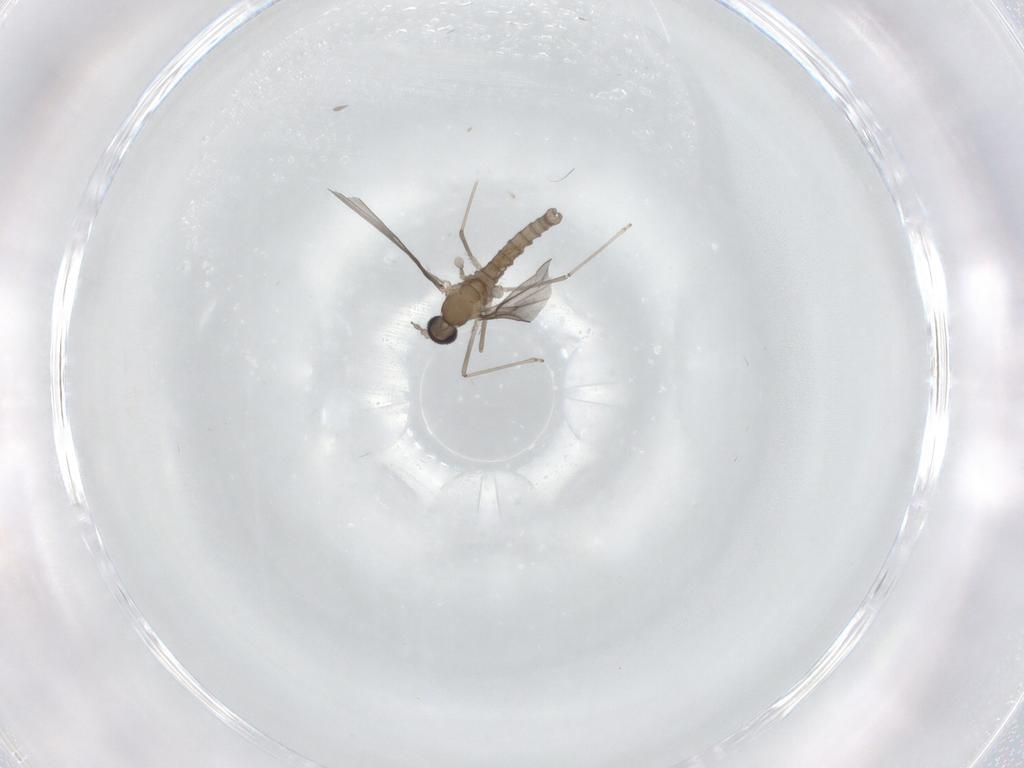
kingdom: Animalia
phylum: Arthropoda
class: Insecta
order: Diptera
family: Cecidomyiidae
